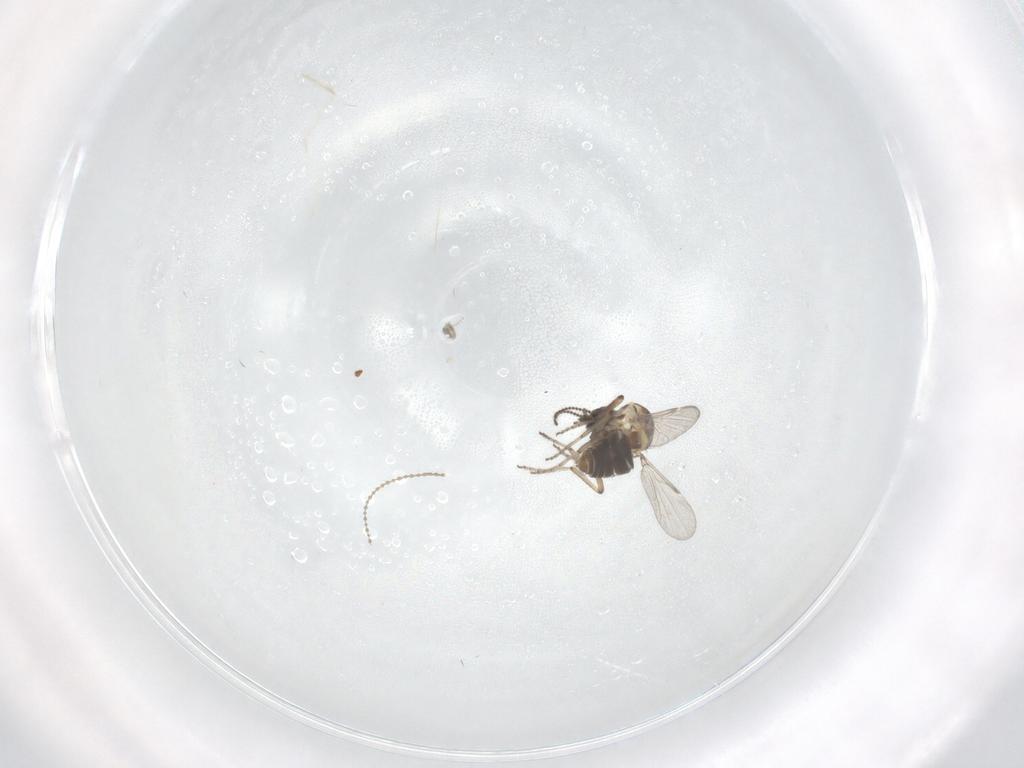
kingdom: Animalia
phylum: Arthropoda
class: Insecta
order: Diptera
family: Ceratopogonidae
